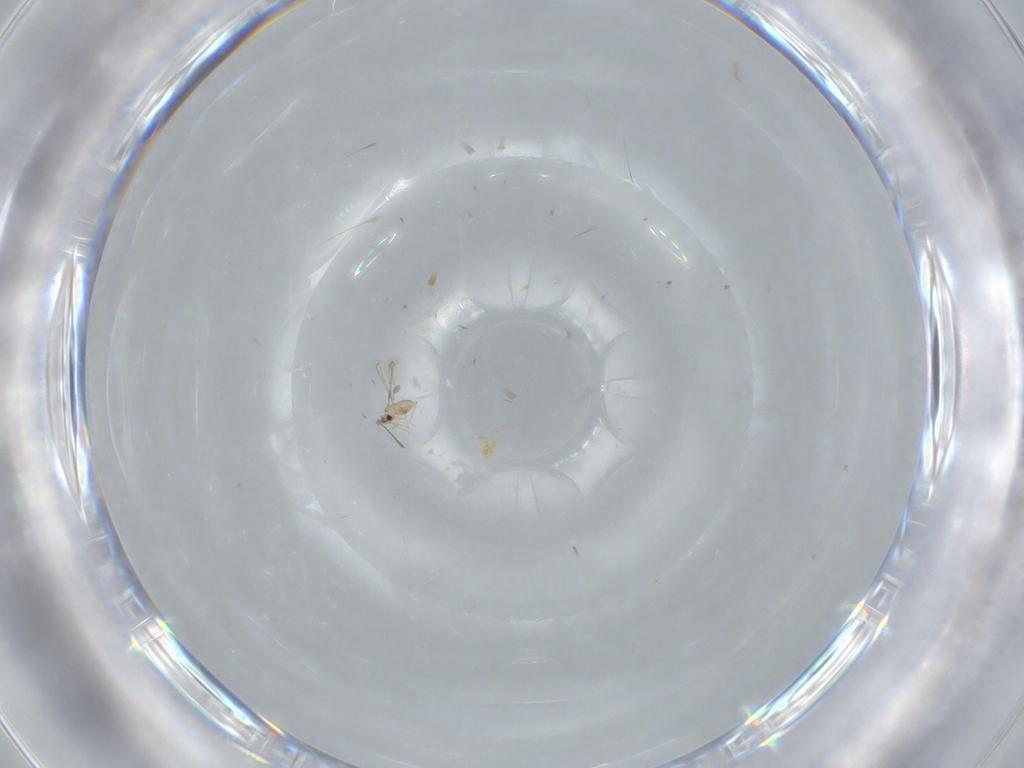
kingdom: Animalia
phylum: Arthropoda
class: Insecta
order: Hymenoptera
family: Mymaridae
